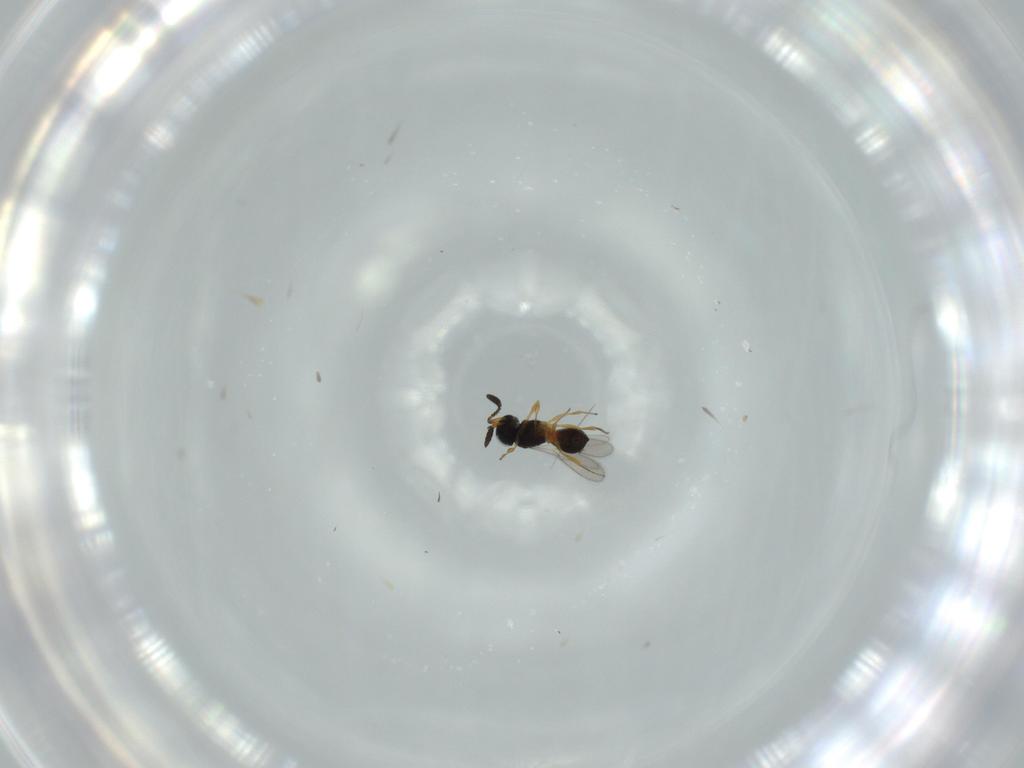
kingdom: Animalia
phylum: Arthropoda
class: Insecta
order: Hymenoptera
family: Scelionidae
